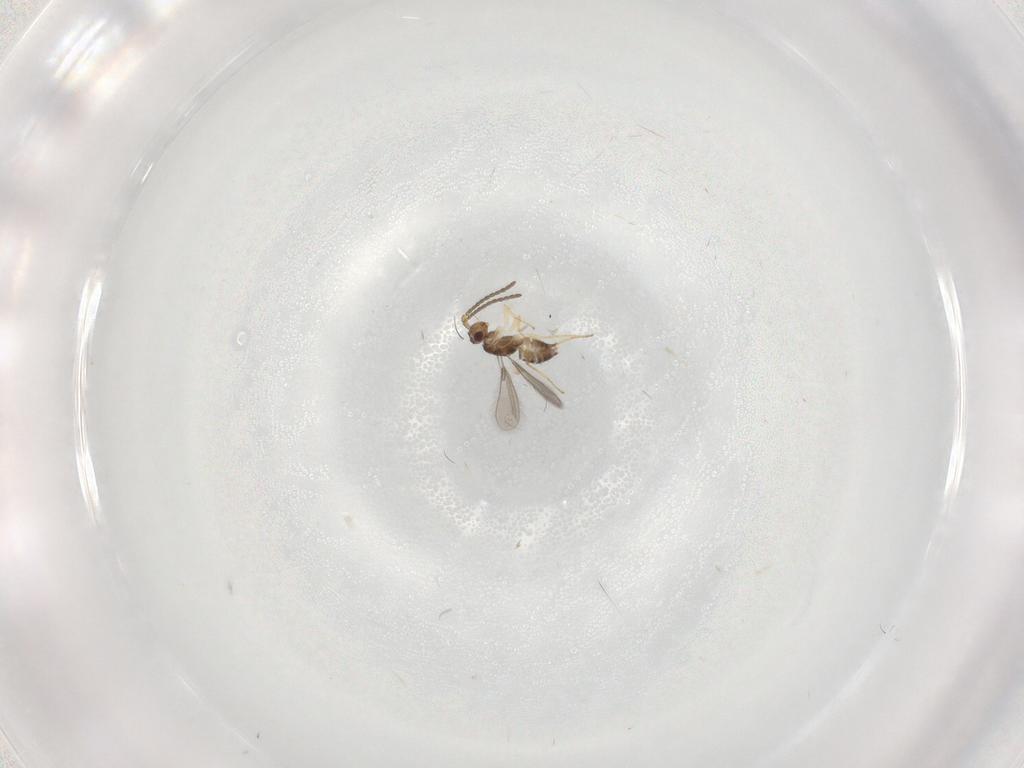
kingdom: Animalia
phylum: Arthropoda
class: Insecta
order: Hymenoptera
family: Mymaridae
